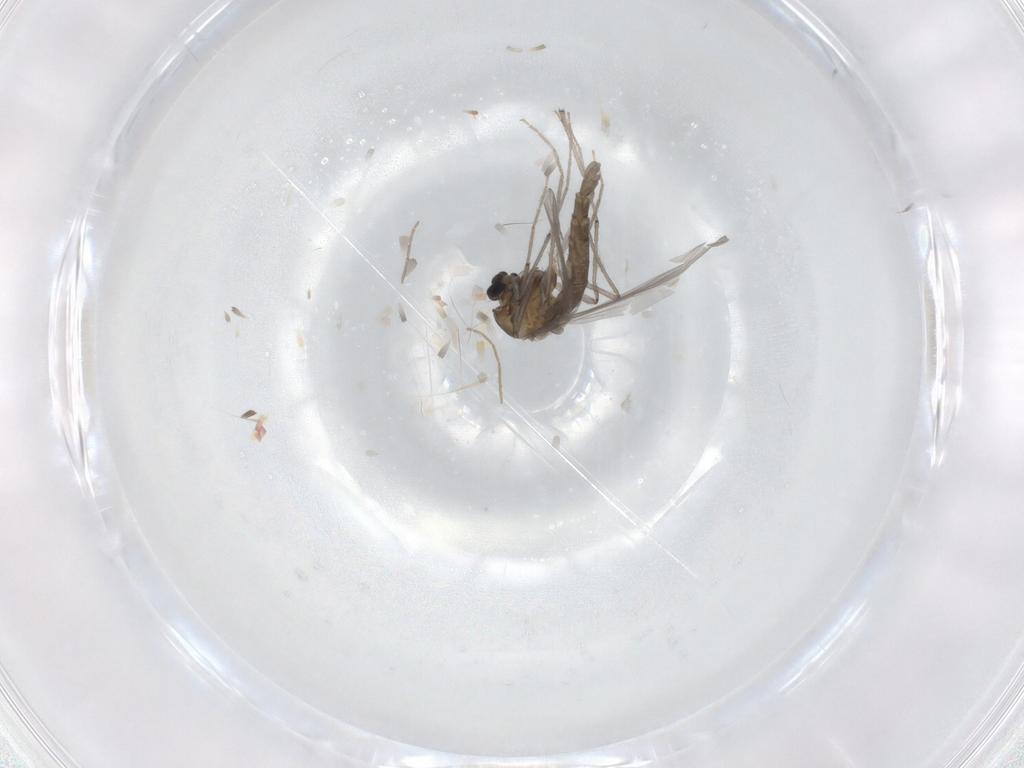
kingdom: Animalia
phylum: Arthropoda
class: Insecta
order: Diptera
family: Chironomidae
